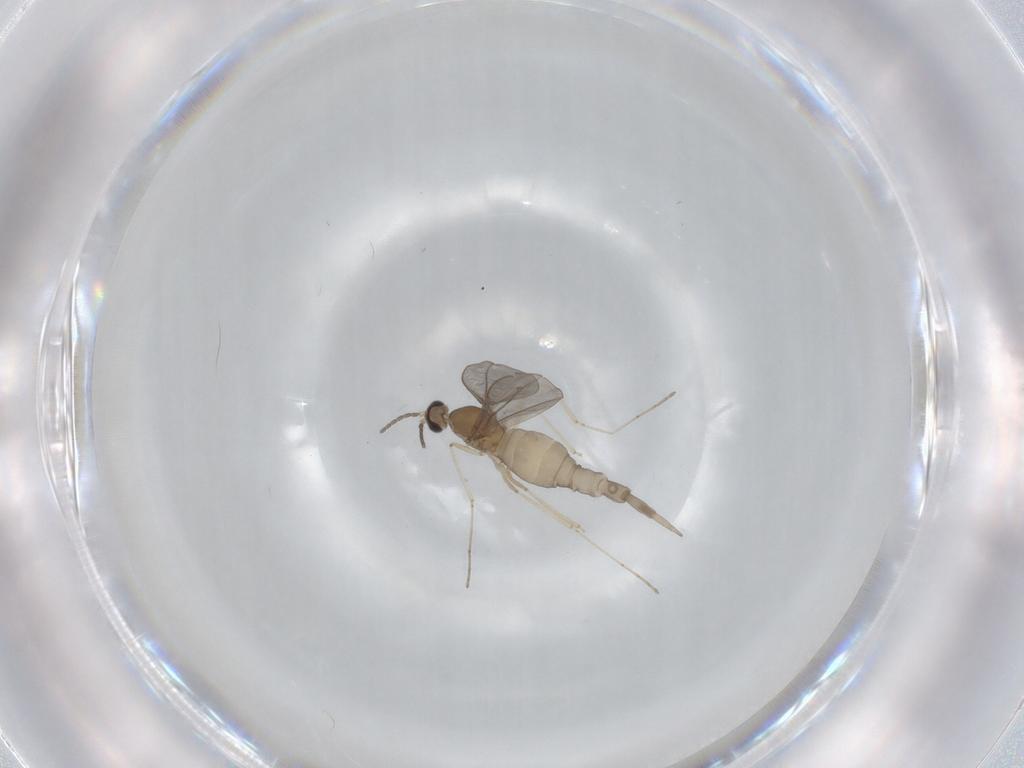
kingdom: Animalia
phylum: Arthropoda
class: Insecta
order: Diptera
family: Cecidomyiidae
